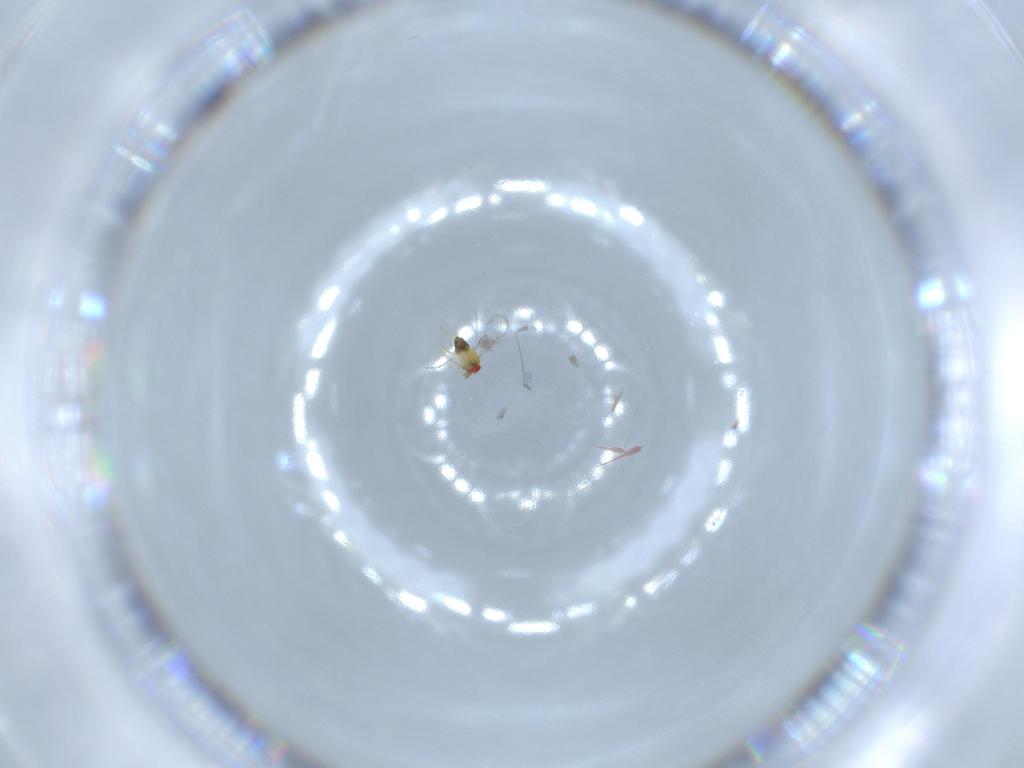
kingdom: Animalia
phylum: Arthropoda
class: Insecta
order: Hymenoptera
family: Trichogrammatidae
